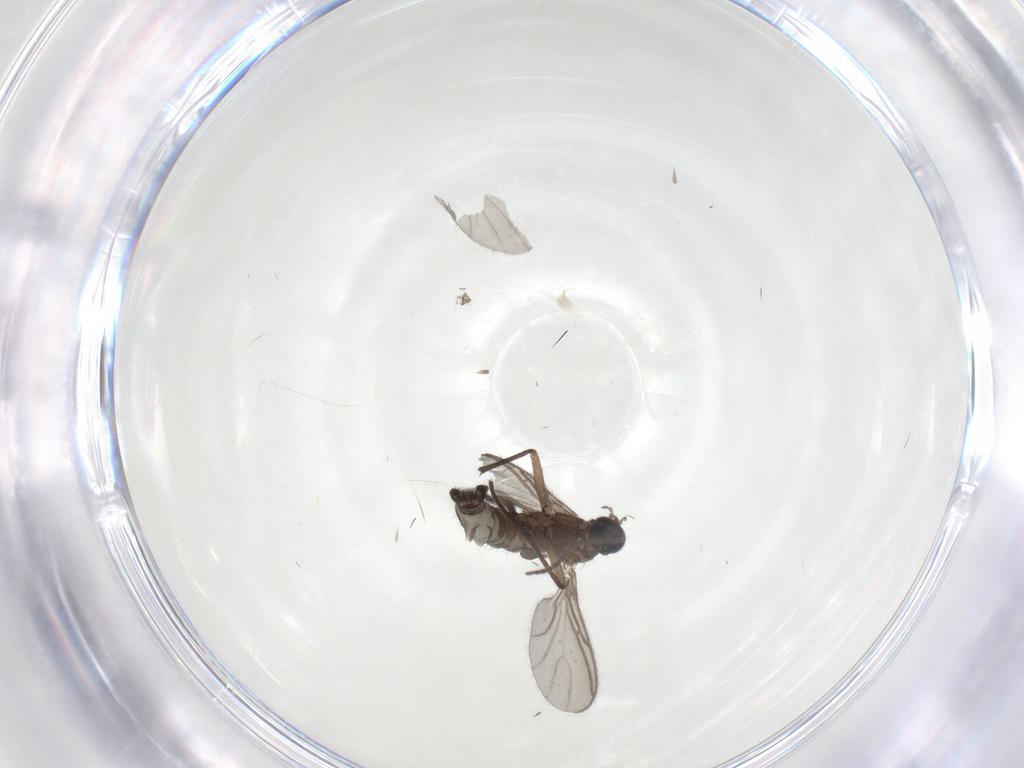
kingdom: Animalia
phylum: Arthropoda
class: Insecta
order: Diptera
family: Sciaridae
